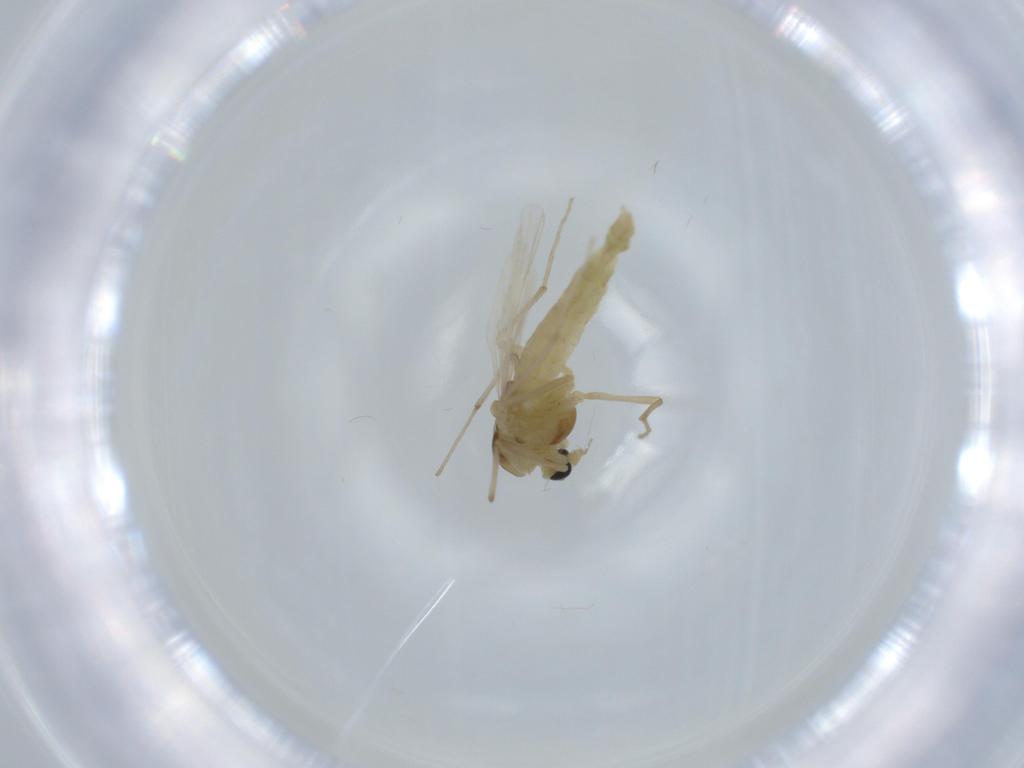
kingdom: Animalia
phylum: Arthropoda
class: Insecta
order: Diptera
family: Chironomidae
